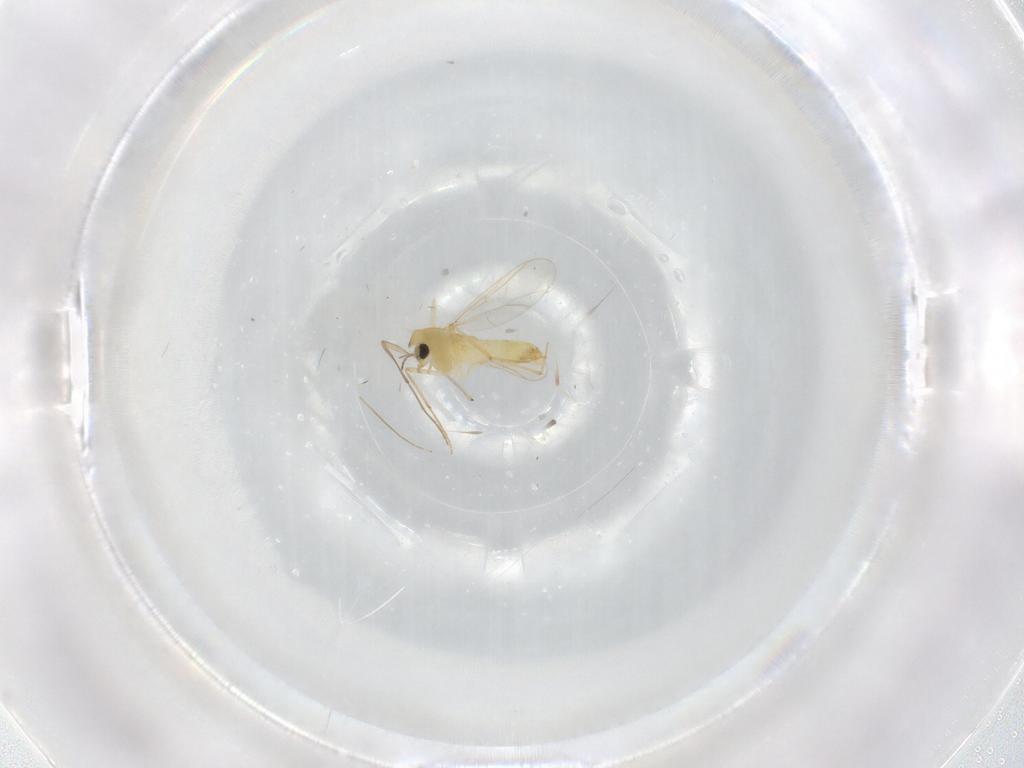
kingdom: Animalia
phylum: Arthropoda
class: Insecta
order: Diptera
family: Chironomidae
